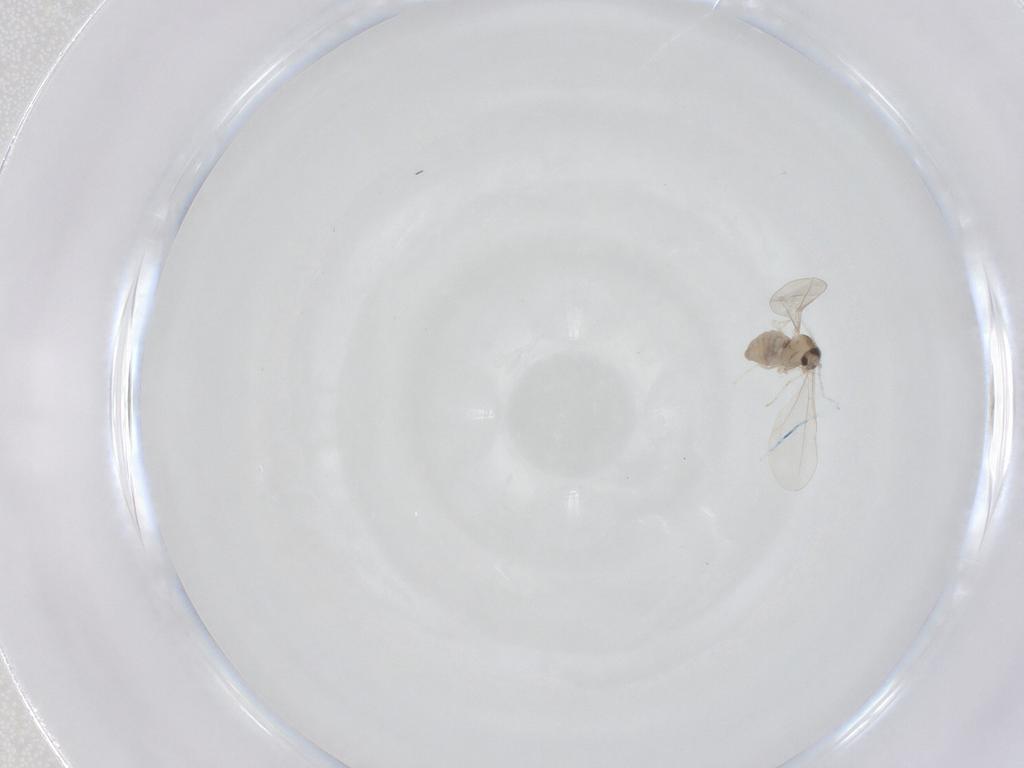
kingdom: Animalia
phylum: Arthropoda
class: Insecta
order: Diptera
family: Cecidomyiidae
